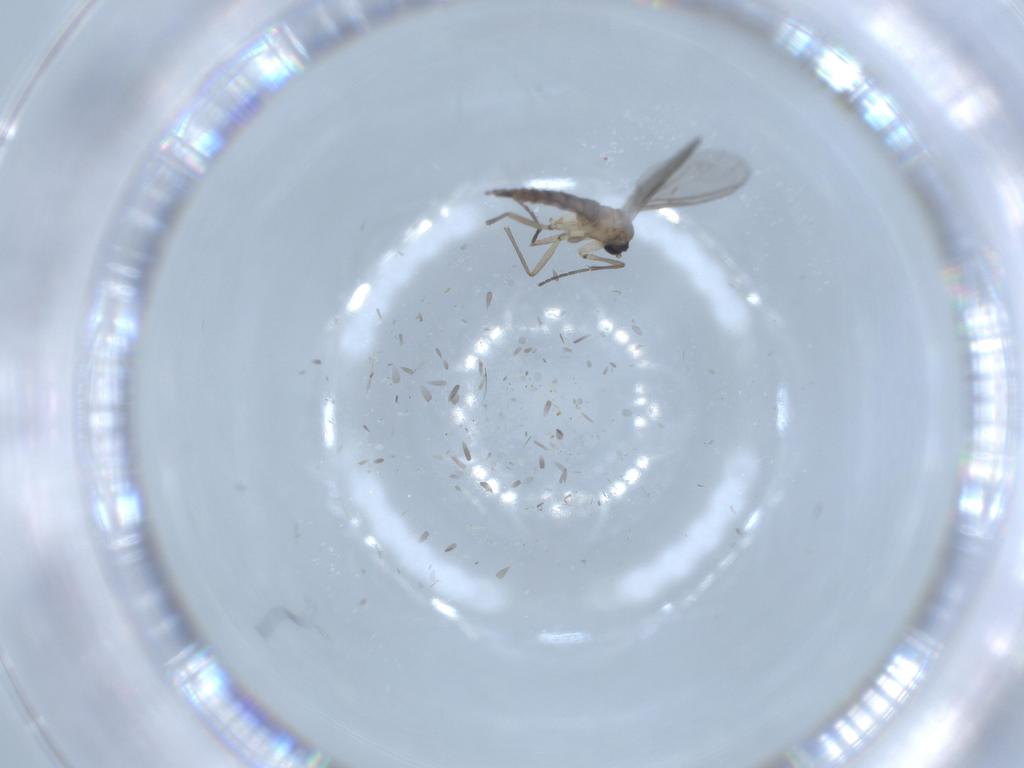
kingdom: Animalia
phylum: Arthropoda
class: Insecta
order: Diptera
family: Sciaridae
